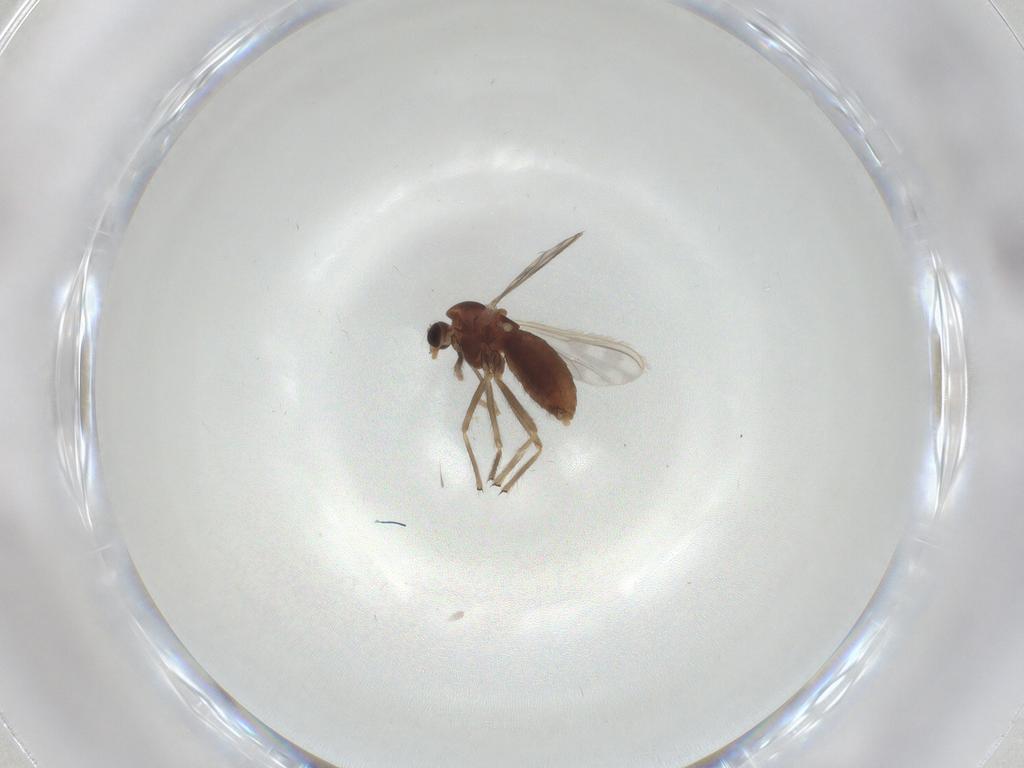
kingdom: Animalia
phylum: Arthropoda
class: Insecta
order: Diptera
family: Chironomidae
